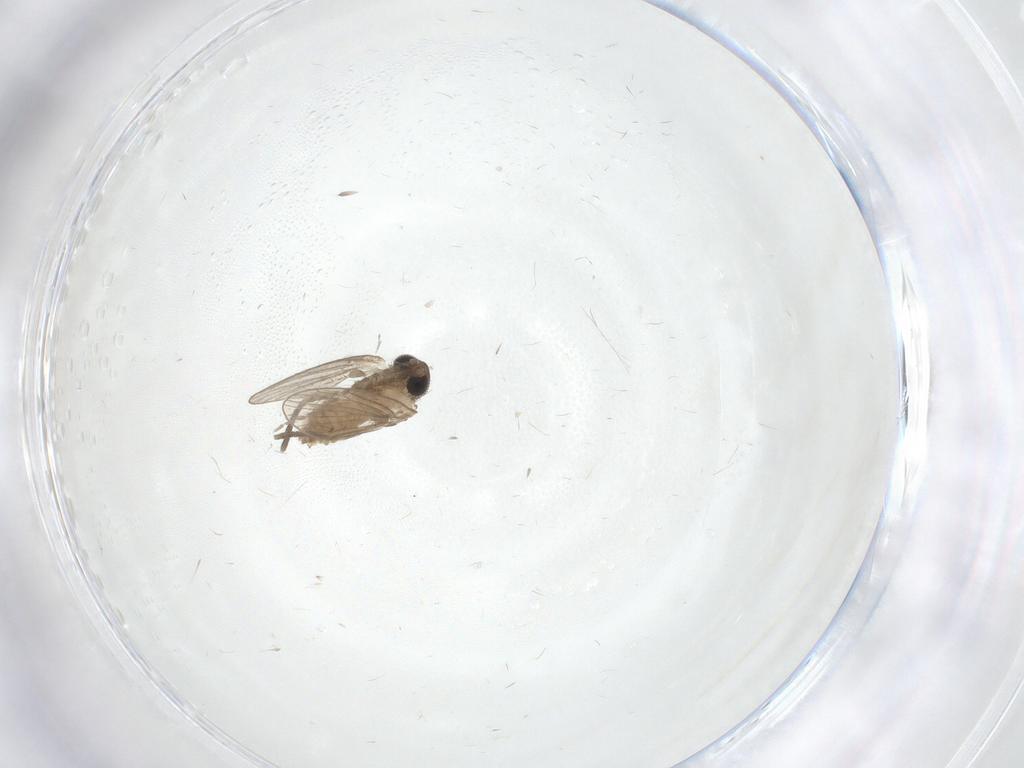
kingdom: Animalia
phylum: Arthropoda
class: Insecta
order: Diptera
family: Psychodidae
